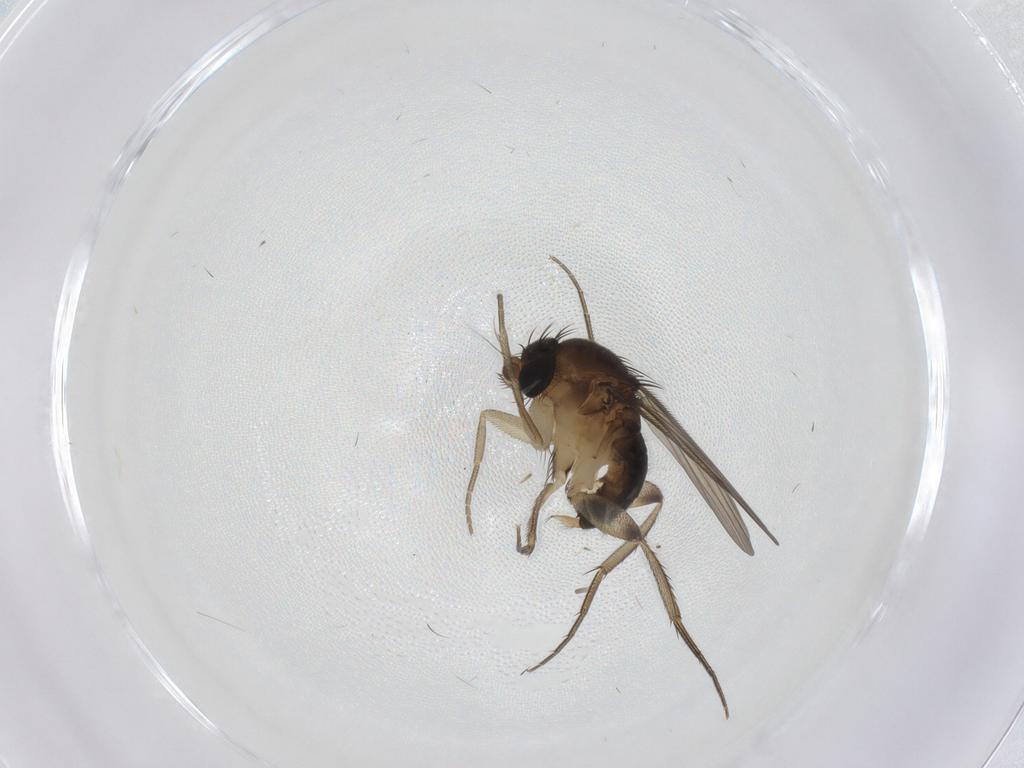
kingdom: Animalia
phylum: Arthropoda
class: Insecta
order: Diptera
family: Phoridae
